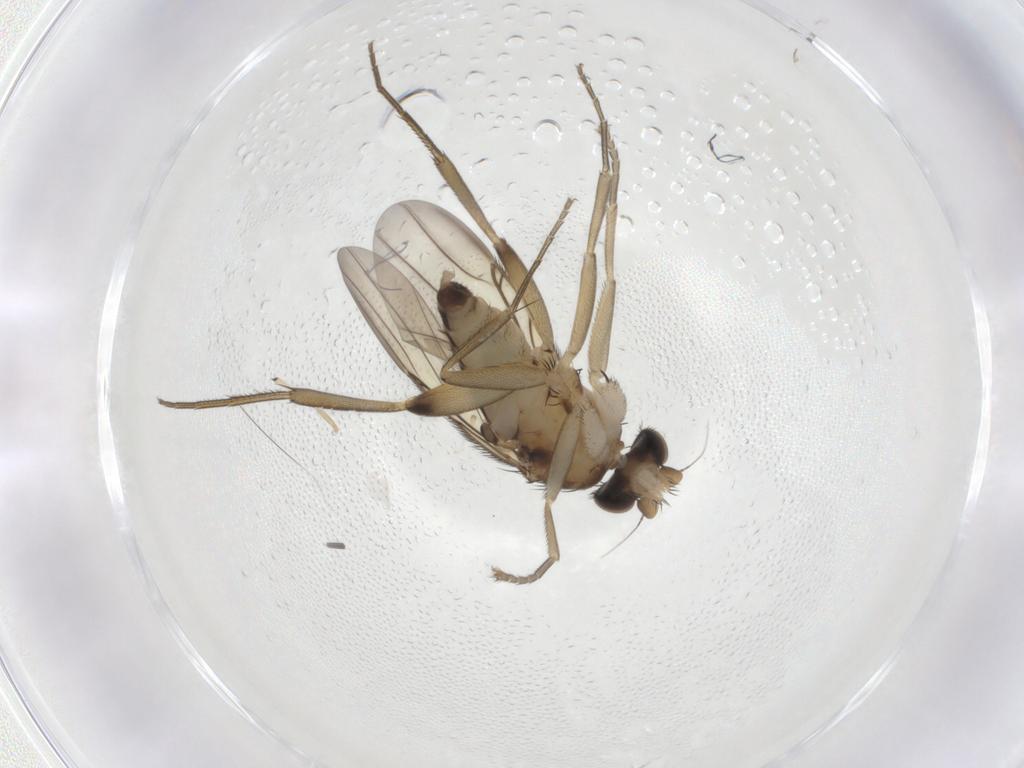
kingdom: Animalia
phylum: Arthropoda
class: Insecta
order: Diptera
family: Phoridae
